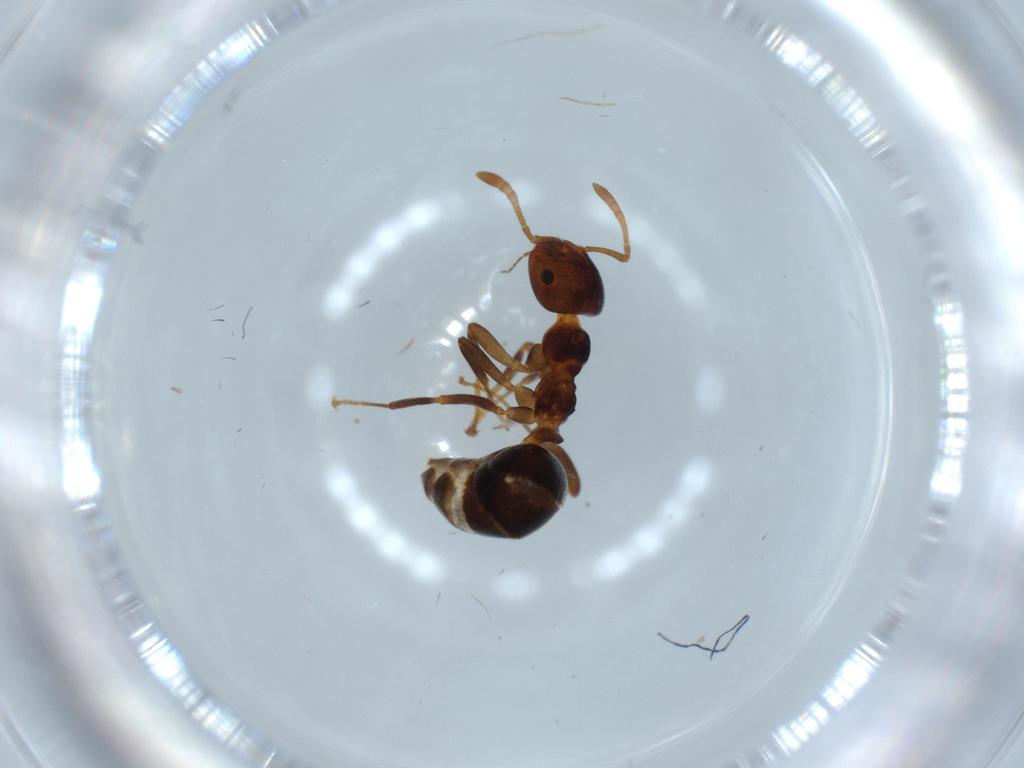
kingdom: Animalia
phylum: Arthropoda
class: Insecta
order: Hymenoptera
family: Formicidae
